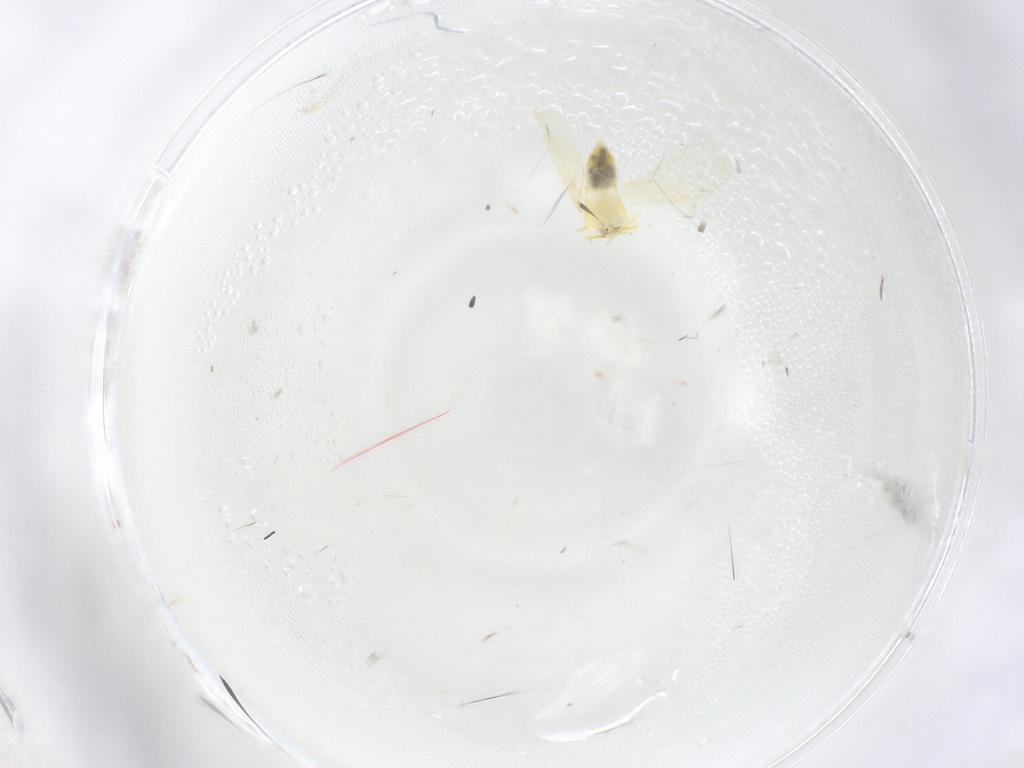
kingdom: Animalia
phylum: Arthropoda
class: Insecta
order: Hemiptera
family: Aleyrodidae
